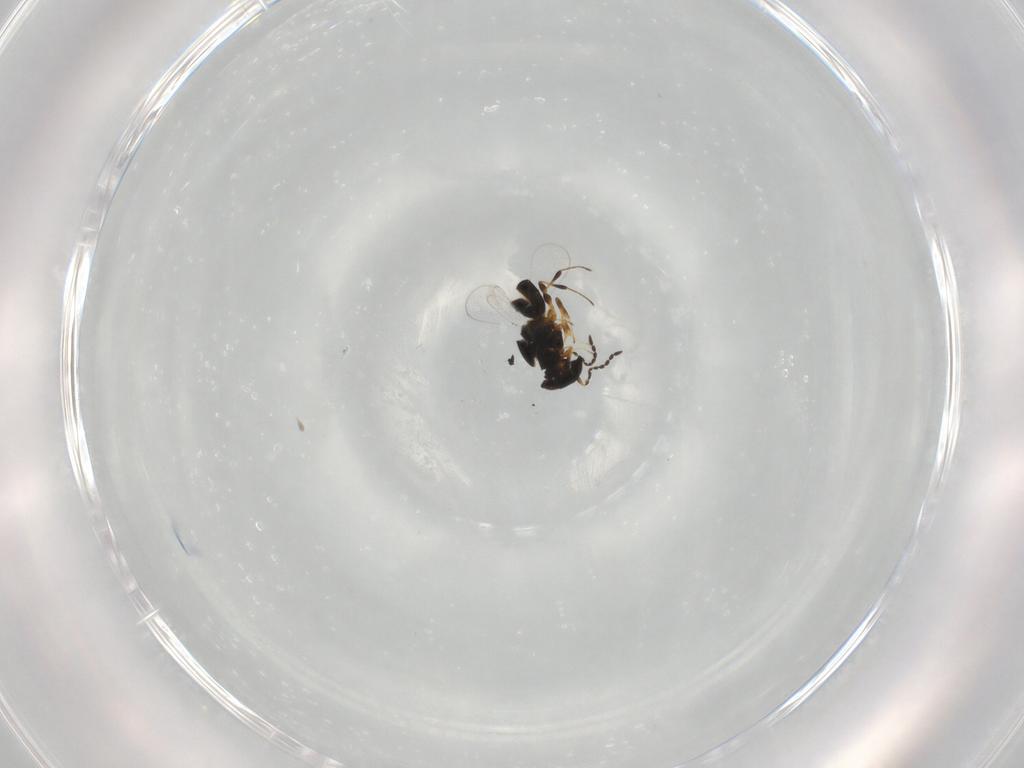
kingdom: Animalia
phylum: Arthropoda
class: Insecta
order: Hymenoptera
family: Platygastridae
